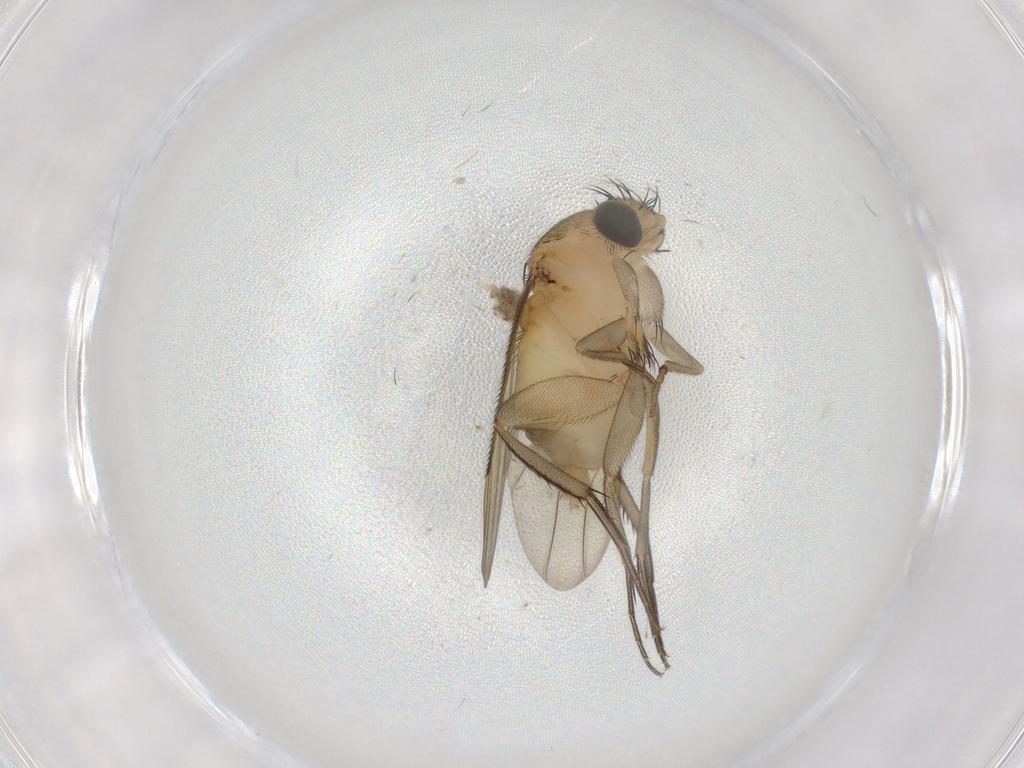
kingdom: Animalia
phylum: Arthropoda
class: Insecta
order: Diptera
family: Phoridae
